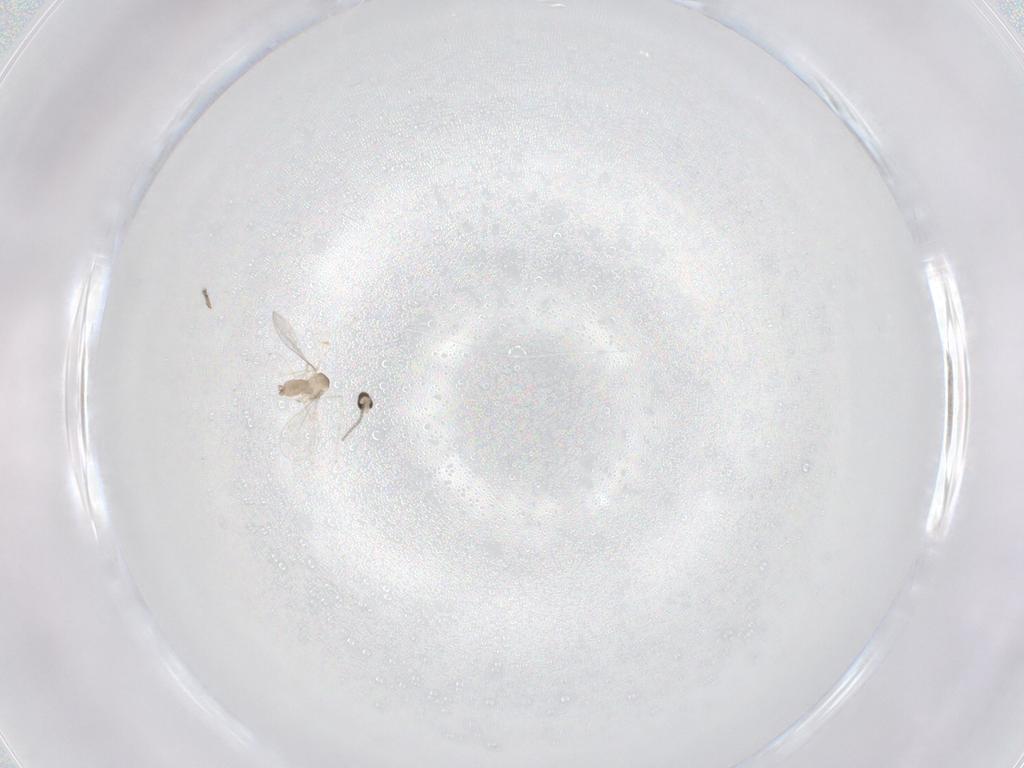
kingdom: Animalia
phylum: Arthropoda
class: Insecta
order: Diptera
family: Cecidomyiidae
